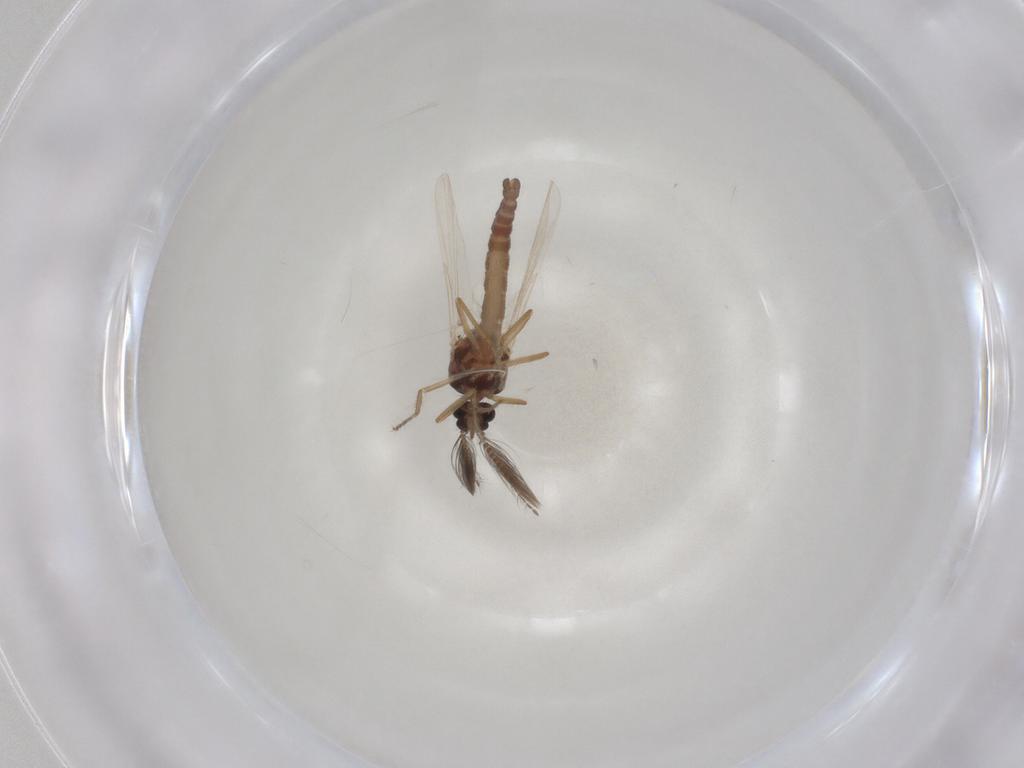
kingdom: Animalia
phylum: Arthropoda
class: Insecta
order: Diptera
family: Ceratopogonidae
